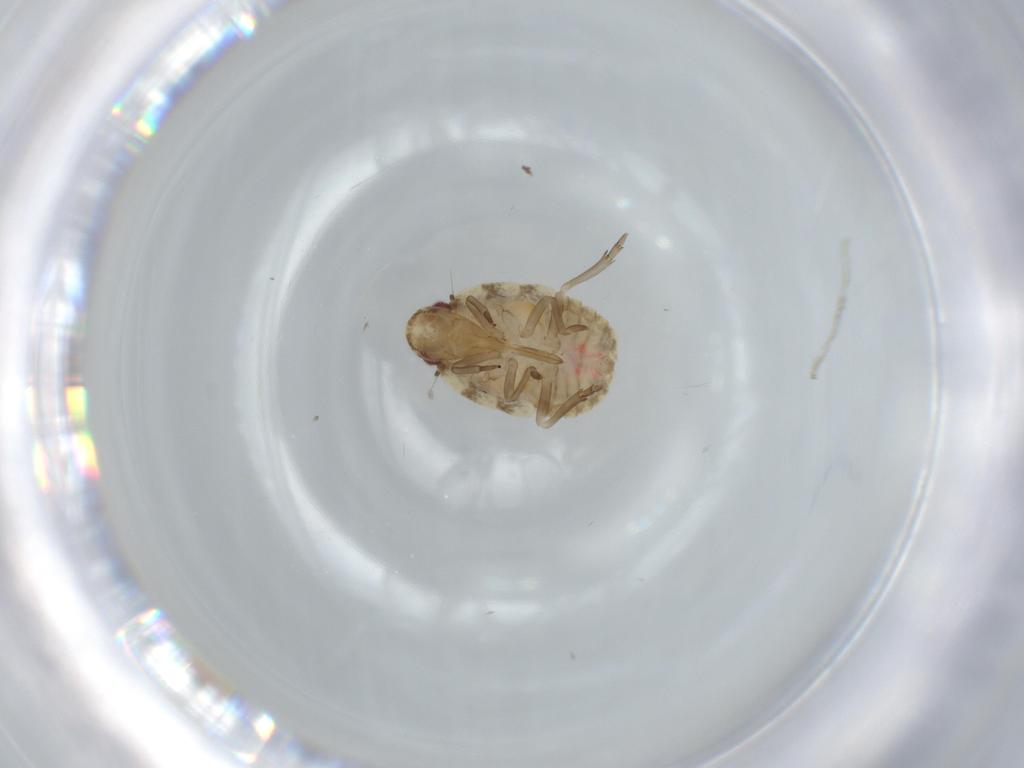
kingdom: Animalia
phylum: Arthropoda
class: Insecta
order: Hemiptera
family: Flatidae
